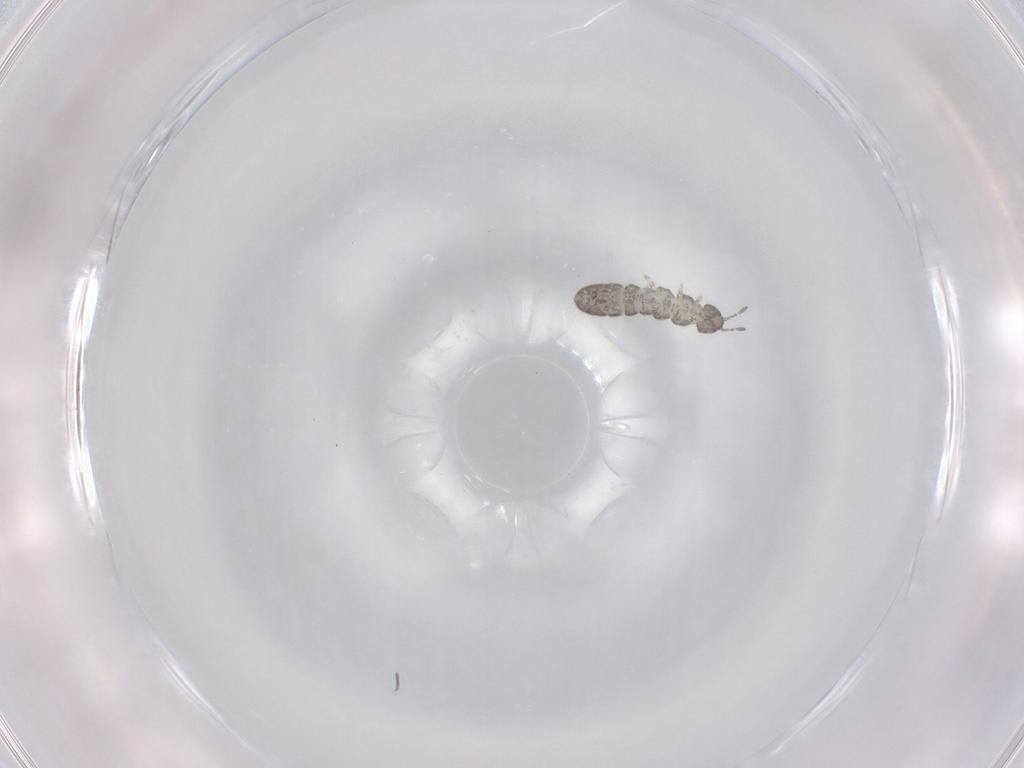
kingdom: Animalia
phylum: Arthropoda
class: Collembola
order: Entomobryomorpha
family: Isotomidae
